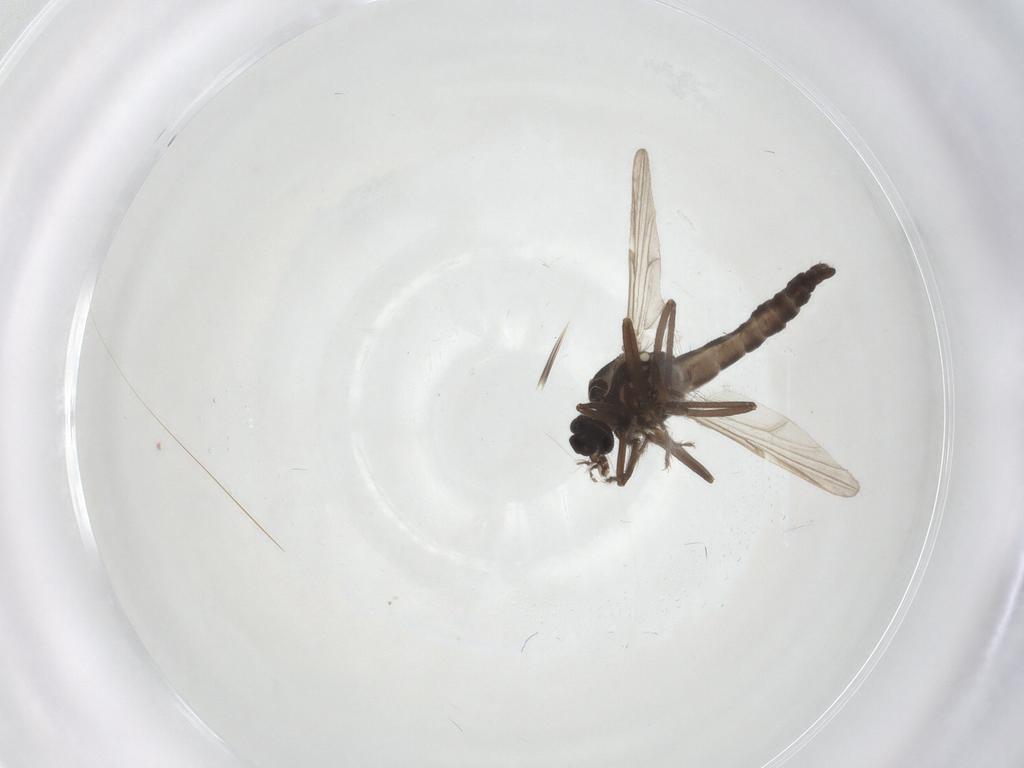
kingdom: Animalia
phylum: Arthropoda
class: Insecta
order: Diptera
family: Ceratopogonidae
